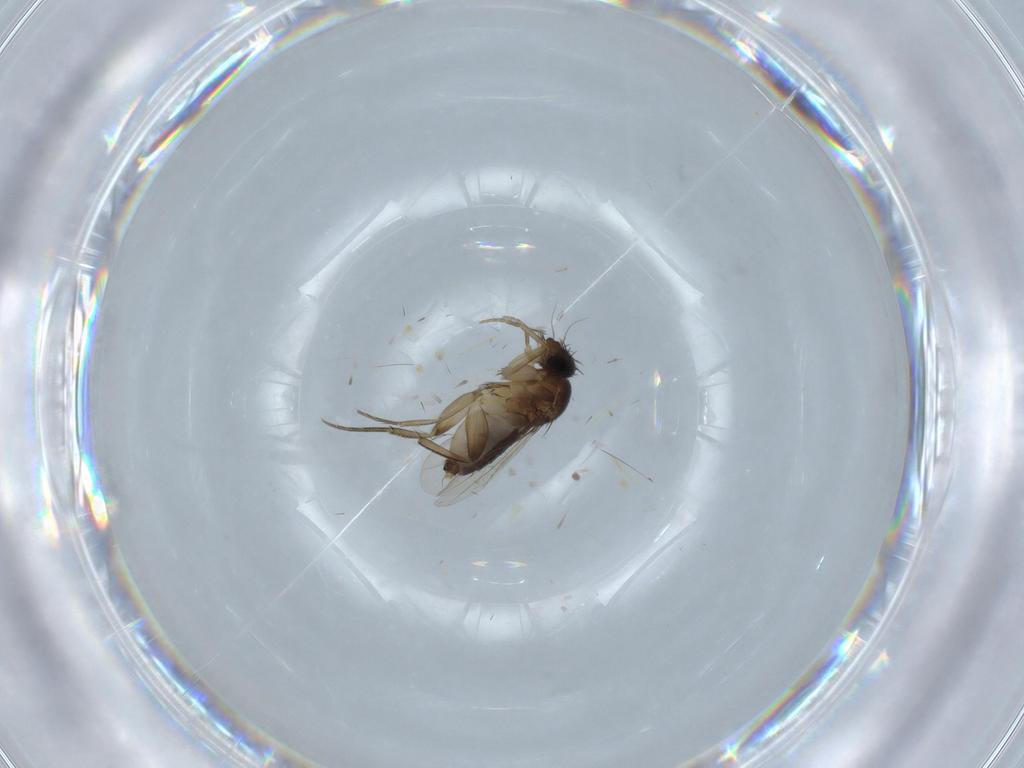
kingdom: Animalia
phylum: Arthropoda
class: Insecta
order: Diptera
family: Phoridae
